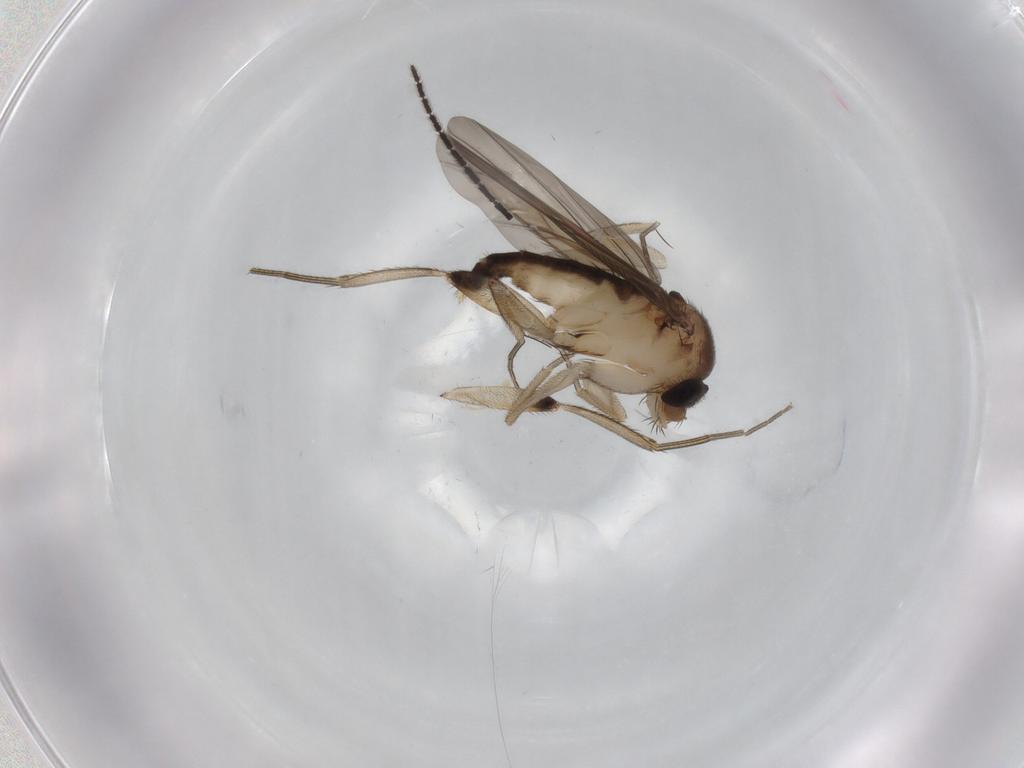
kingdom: Animalia
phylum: Arthropoda
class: Insecta
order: Diptera
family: Phoridae
